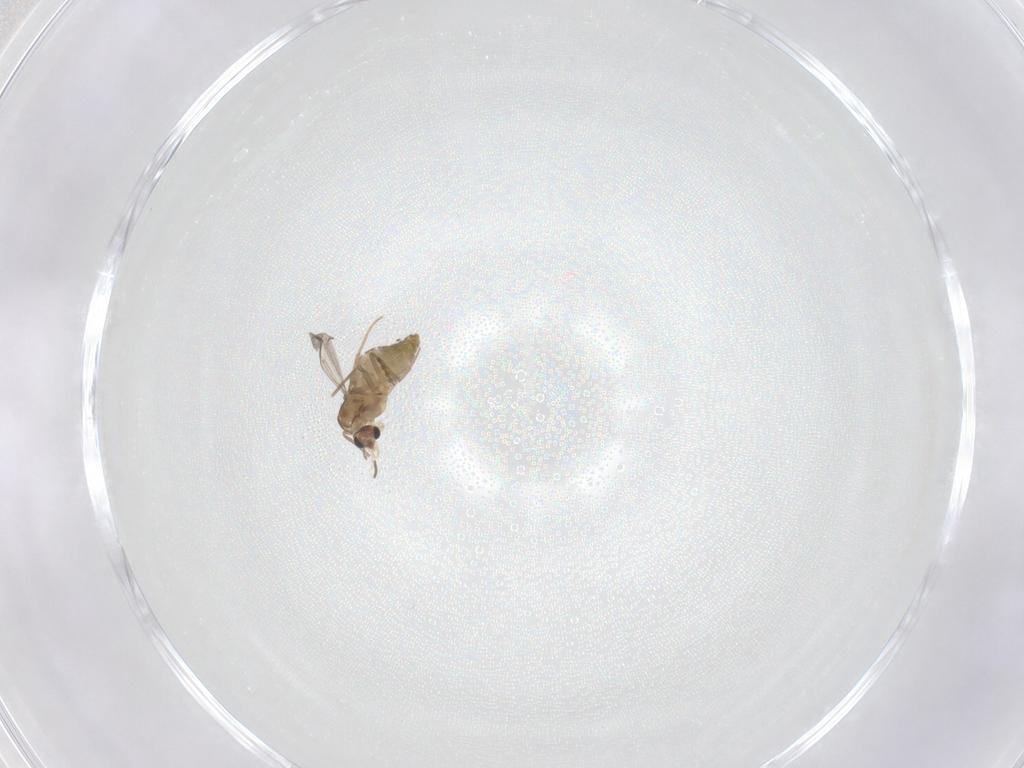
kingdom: Animalia
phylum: Arthropoda
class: Insecta
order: Diptera
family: Chironomidae
